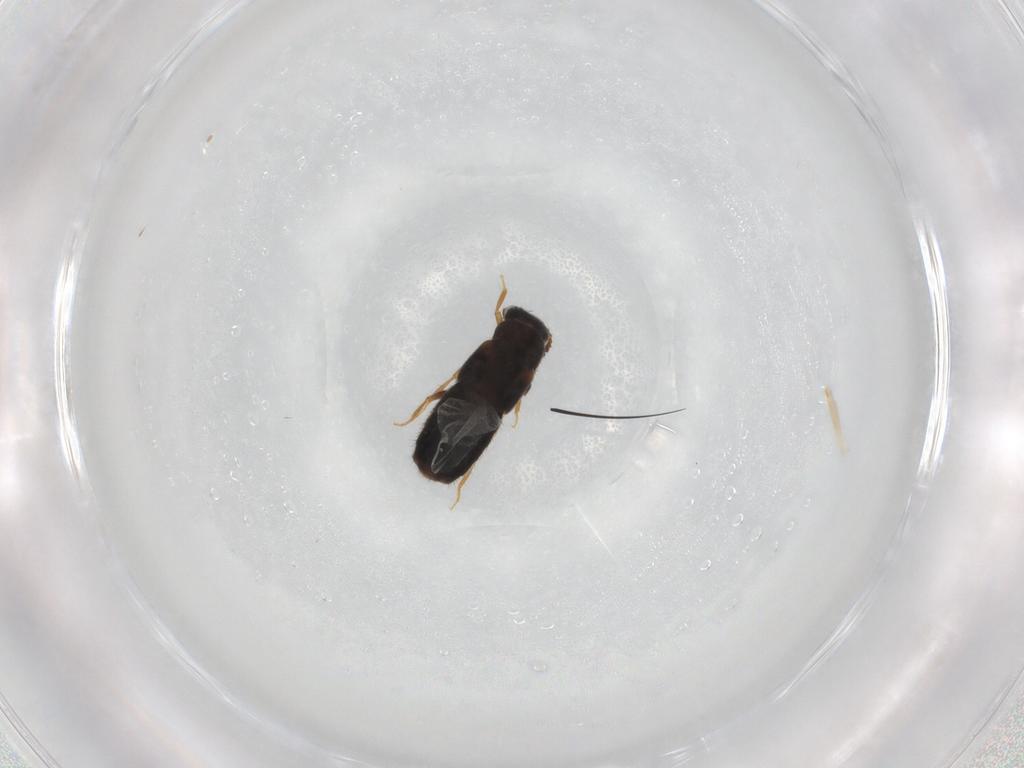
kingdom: Animalia
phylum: Arthropoda
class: Insecta
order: Coleoptera
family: Staphylinidae
